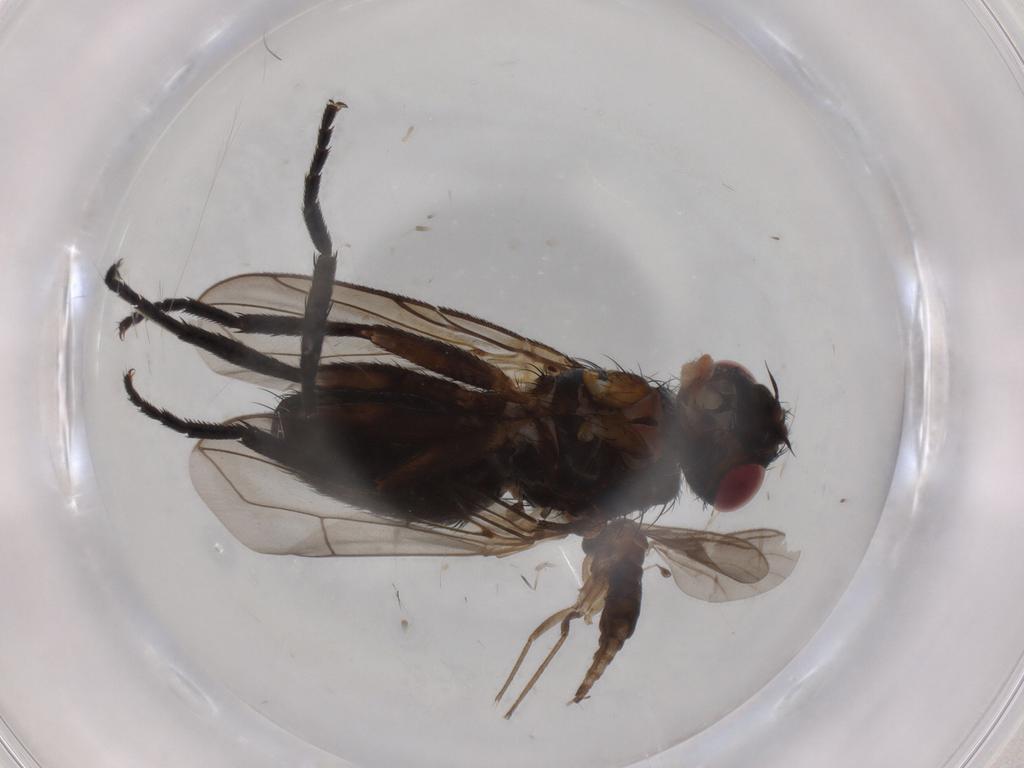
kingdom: Animalia
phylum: Arthropoda
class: Insecta
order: Diptera
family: Tachinidae
